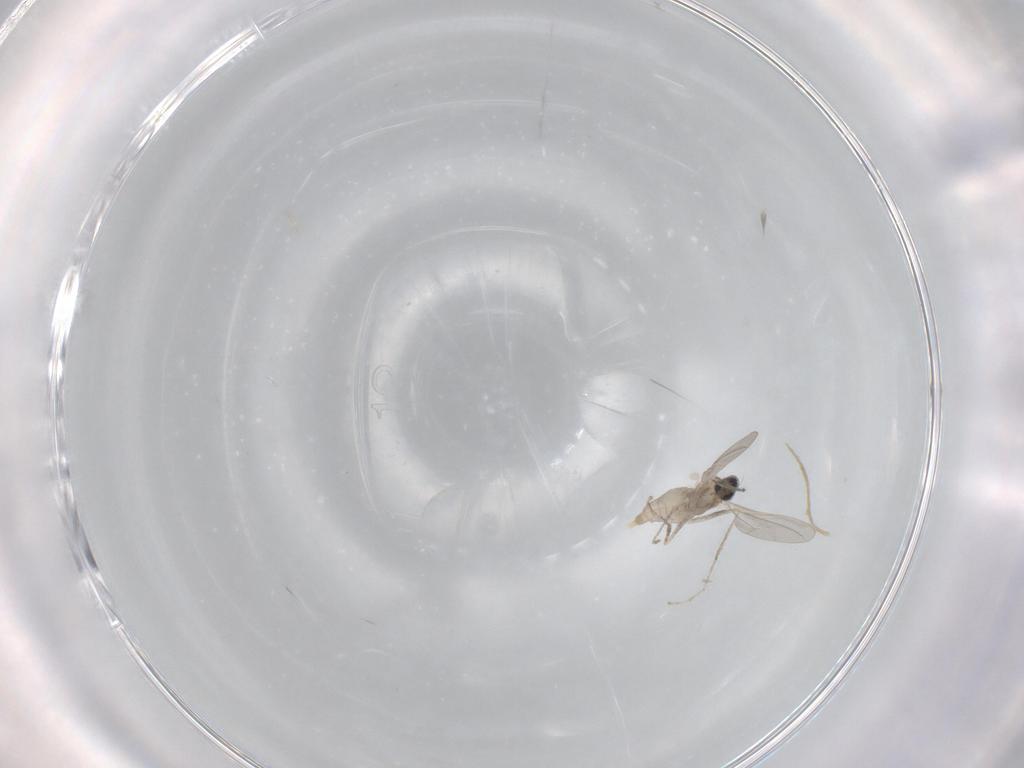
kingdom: Animalia
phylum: Arthropoda
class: Insecta
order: Diptera
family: Cecidomyiidae
